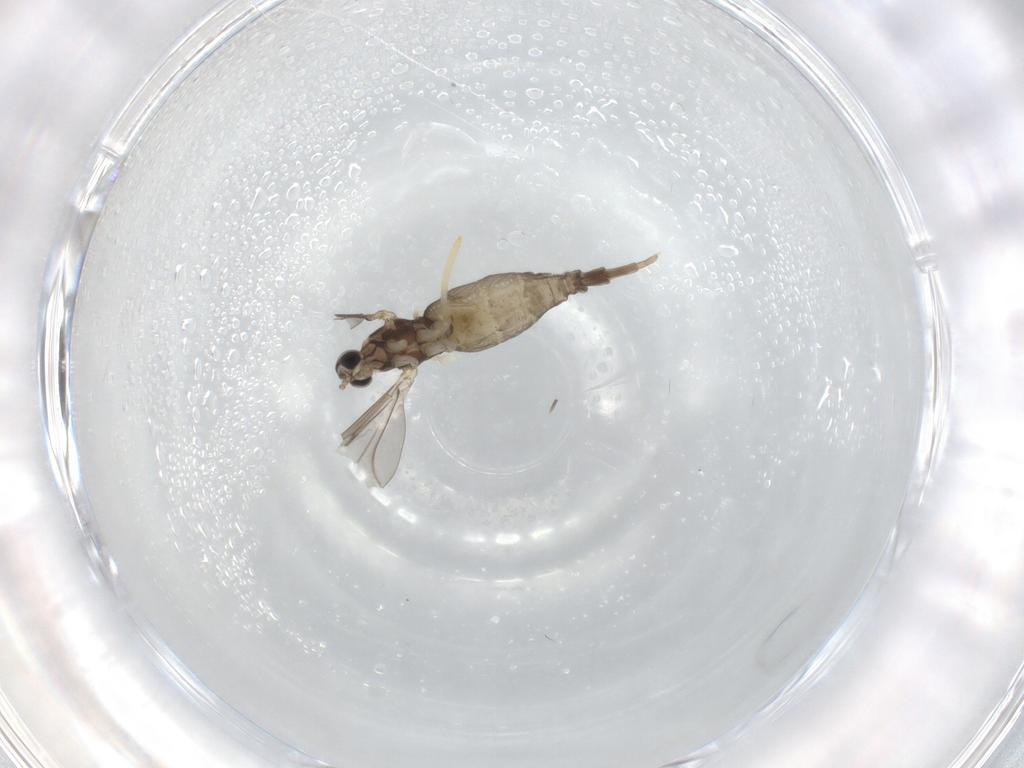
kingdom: Animalia
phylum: Arthropoda
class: Insecta
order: Diptera
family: Cecidomyiidae
